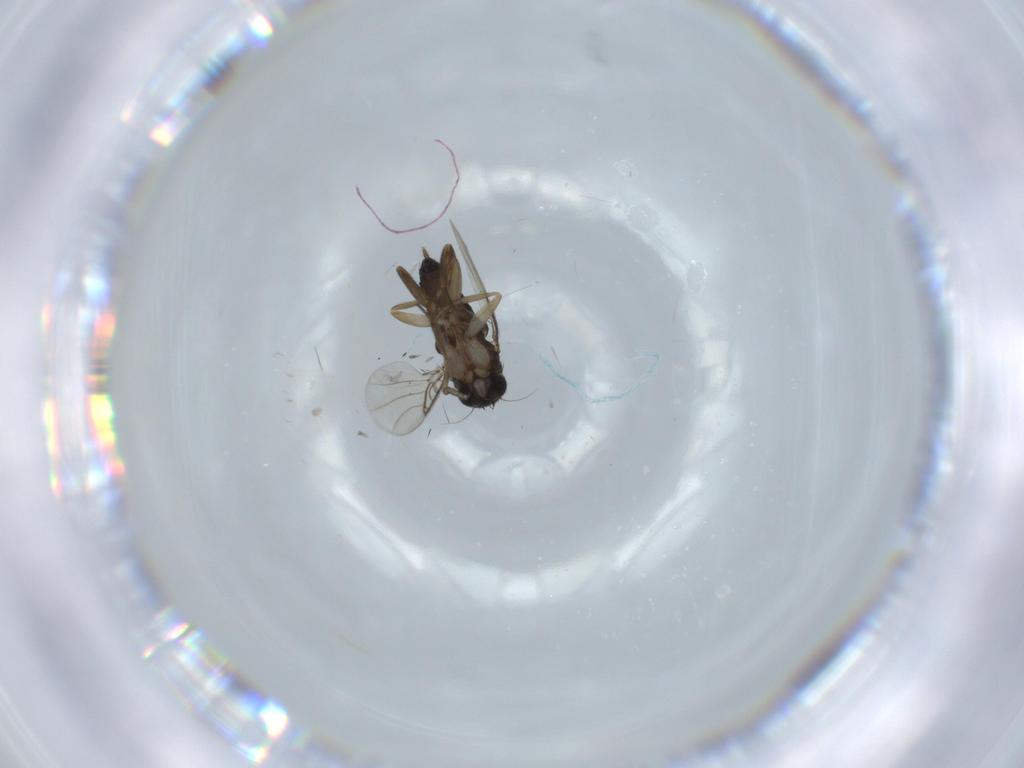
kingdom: Animalia
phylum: Arthropoda
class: Insecta
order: Diptera
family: Phoridae
